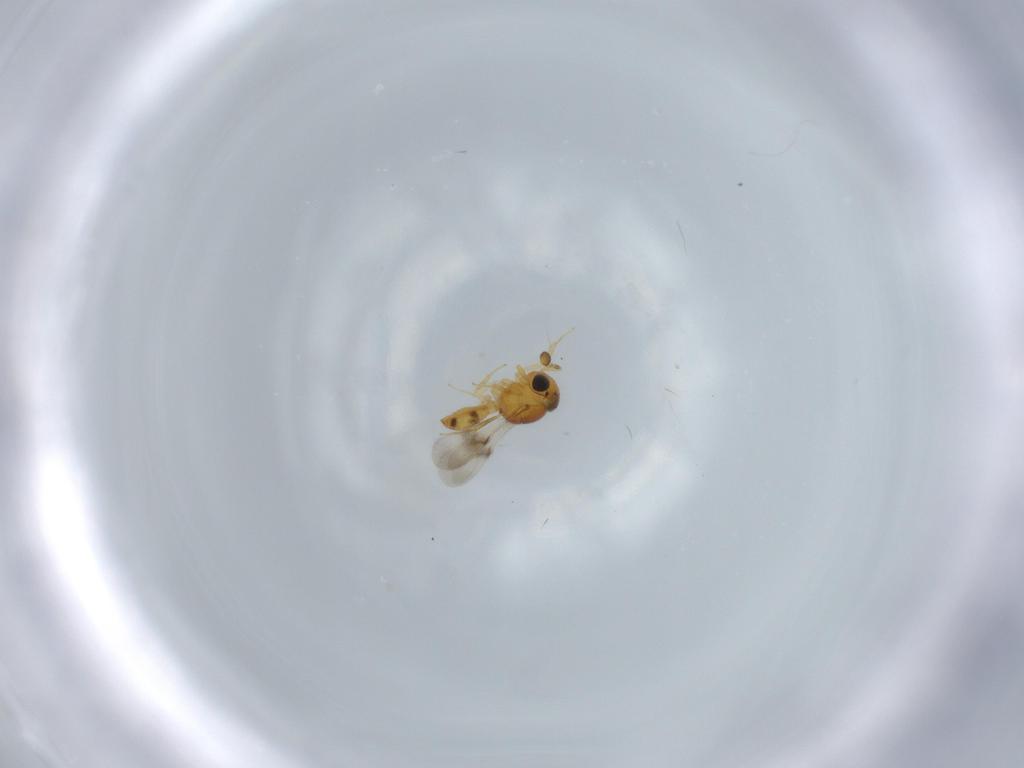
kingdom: Animalia
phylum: Arthropoda
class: Insecta
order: Hymenoptera
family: Scelionidae
